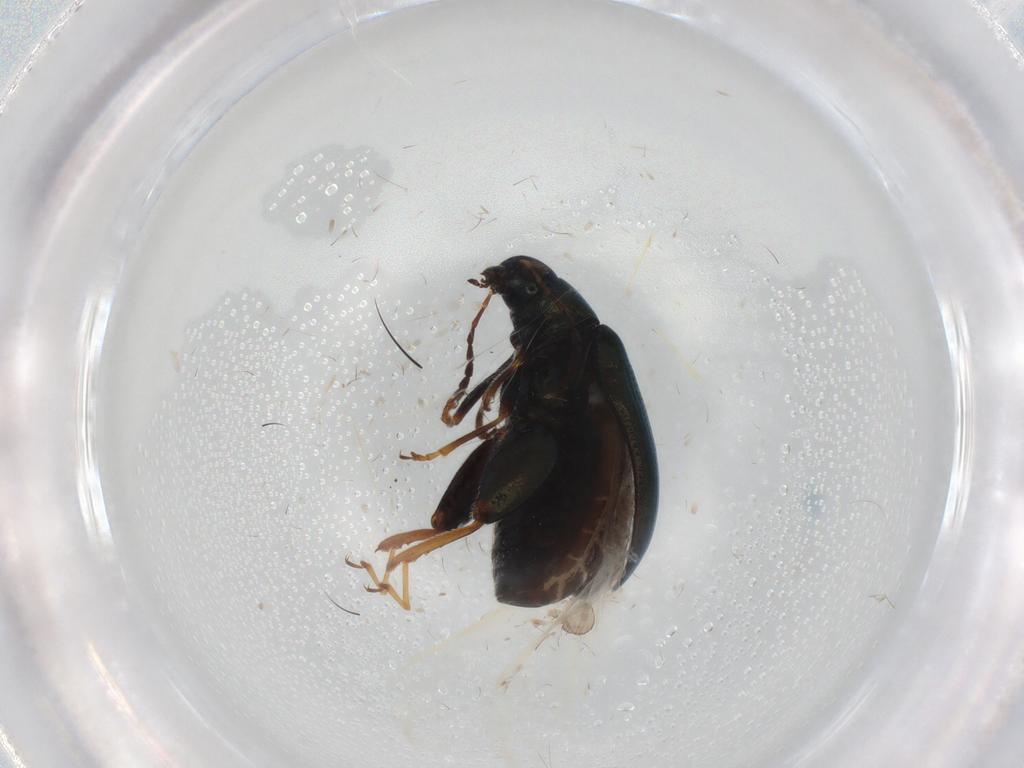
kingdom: Animalia
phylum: Arthropoda
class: Insecta
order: Coleoptera
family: Chrysomelidae
